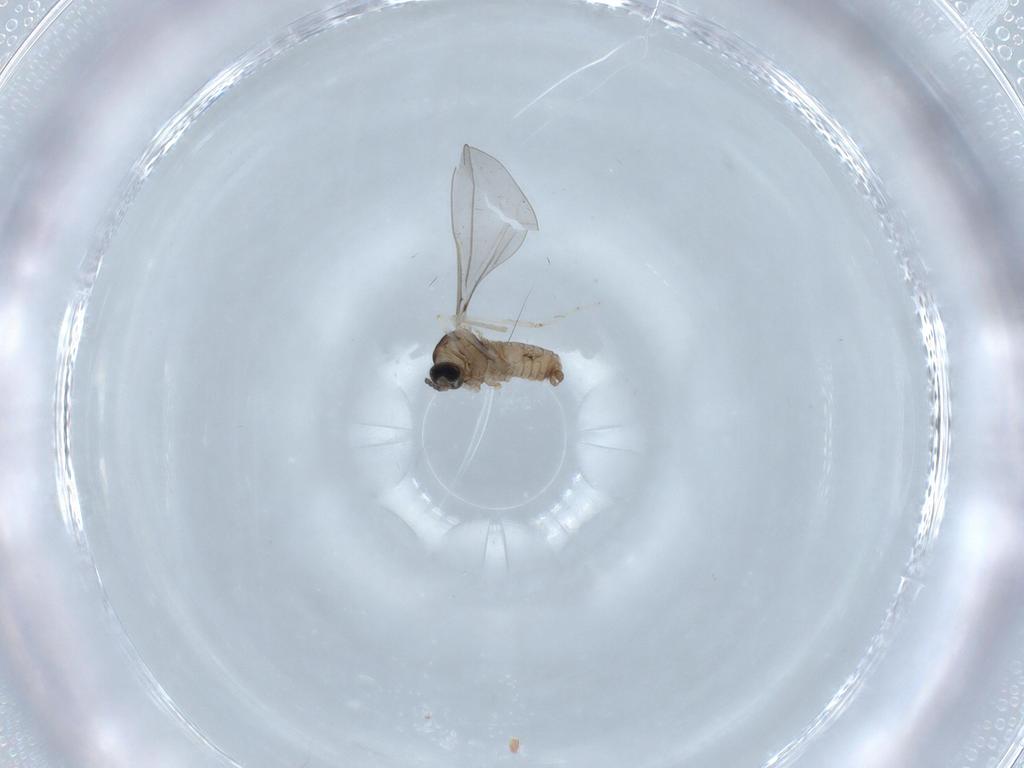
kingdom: Animalia
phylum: Arthropoda
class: Insecta
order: Diptera
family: Cecidomyiidae
